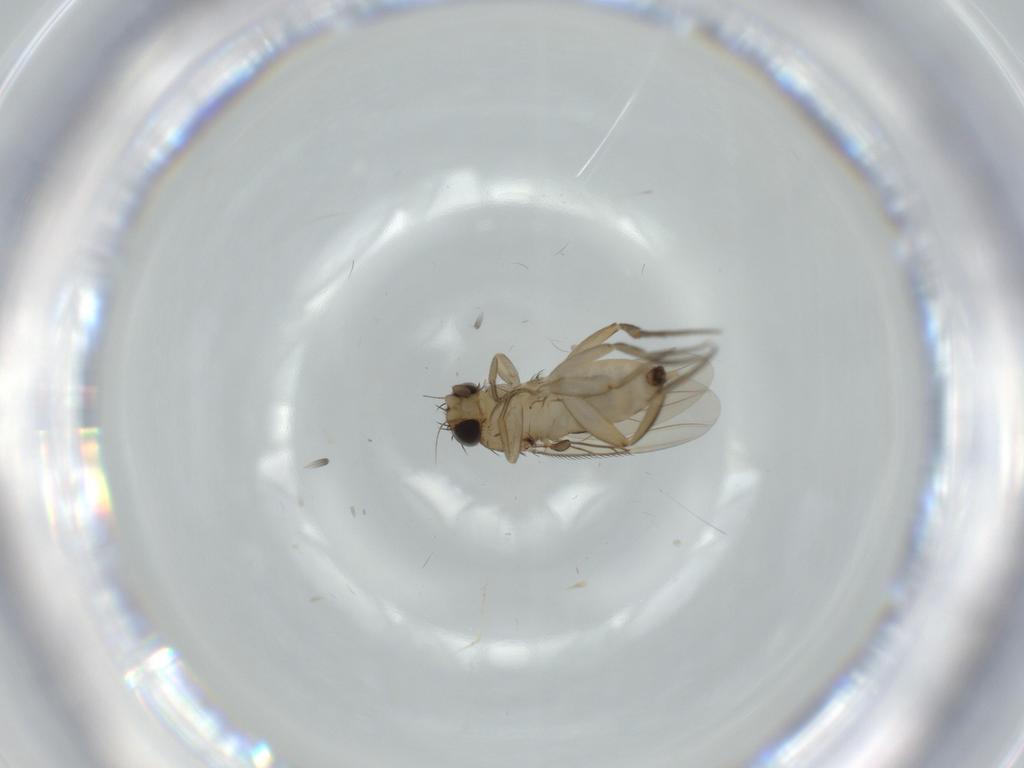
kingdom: Animalia
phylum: Arthropoda
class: Insecta
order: Diptera
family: Phoridae
